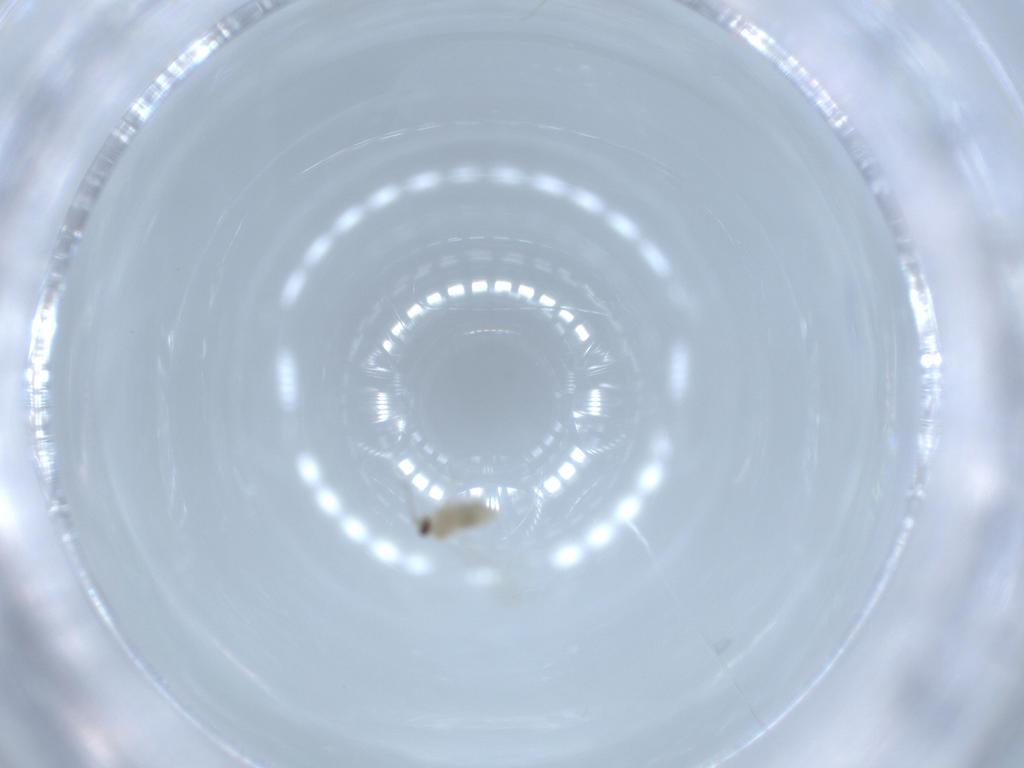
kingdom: Animalia
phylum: Arthropoda
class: Insecta
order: Diptera
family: Cecidomyiidae
